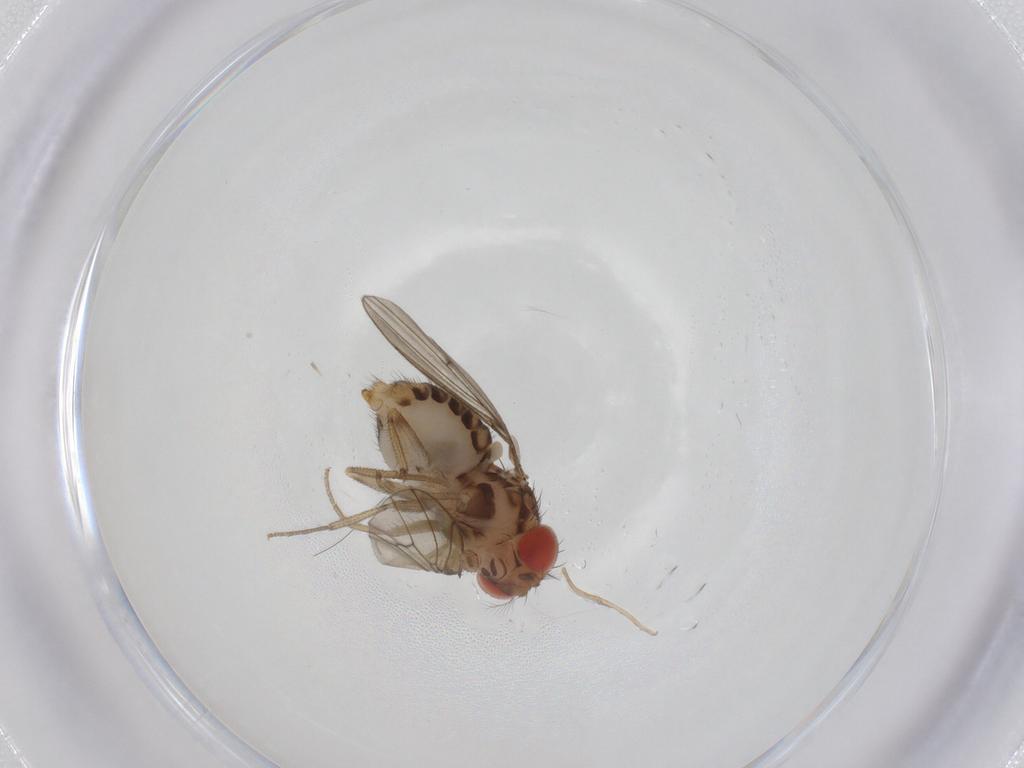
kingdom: Animalia
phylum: Arthropoda
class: Insecta
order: Diptera
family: Drosophilidae
